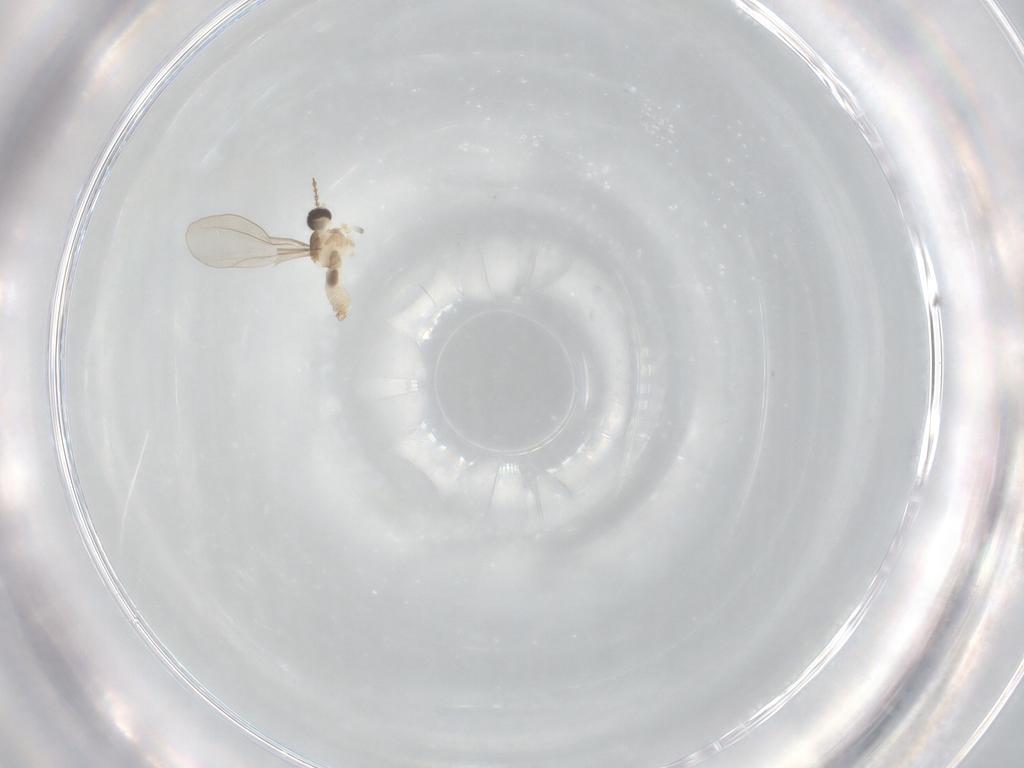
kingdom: Animalia
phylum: Arthropoda
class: Insecta
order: Diptera
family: Cecidomyiidae
